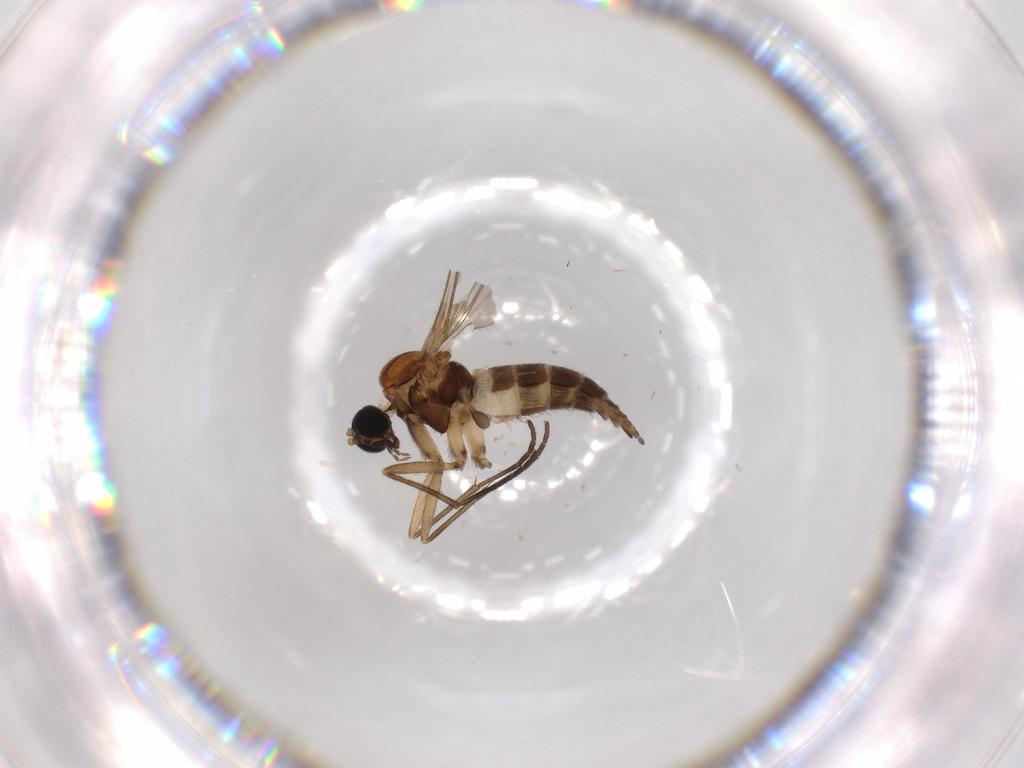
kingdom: Animalia
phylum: Arthropoda
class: Insecta
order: Diptera
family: Sciaridae
